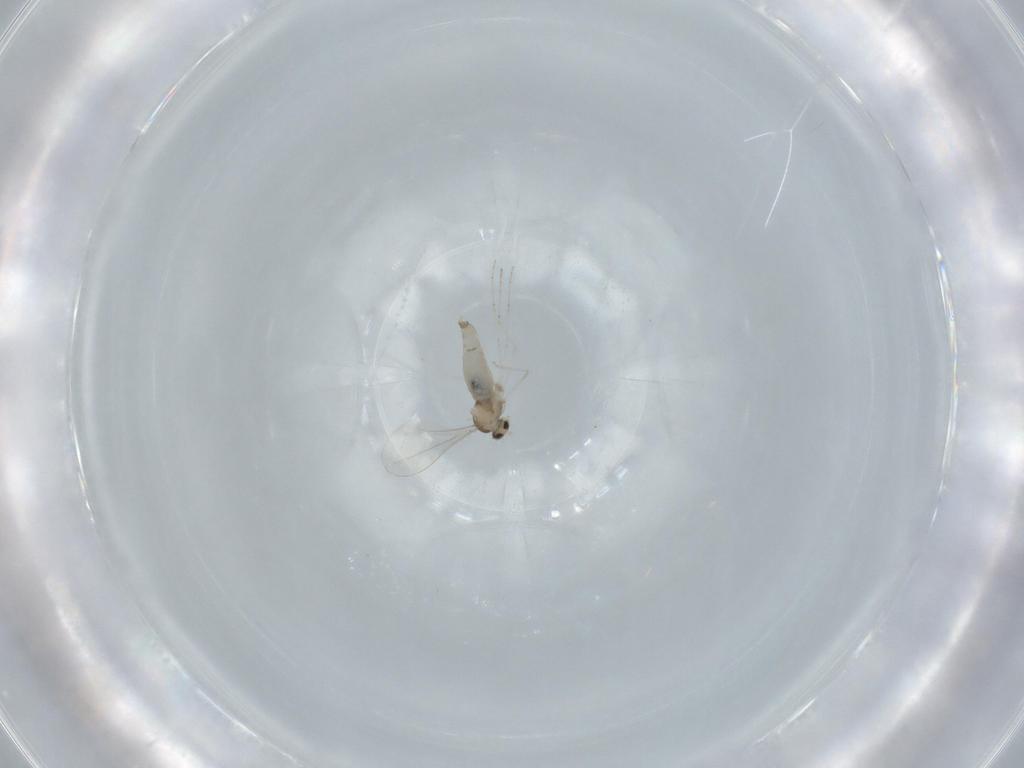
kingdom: Animalia
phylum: Arthropoda
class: Insecta
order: Diptera
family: Cecidomyiidae
